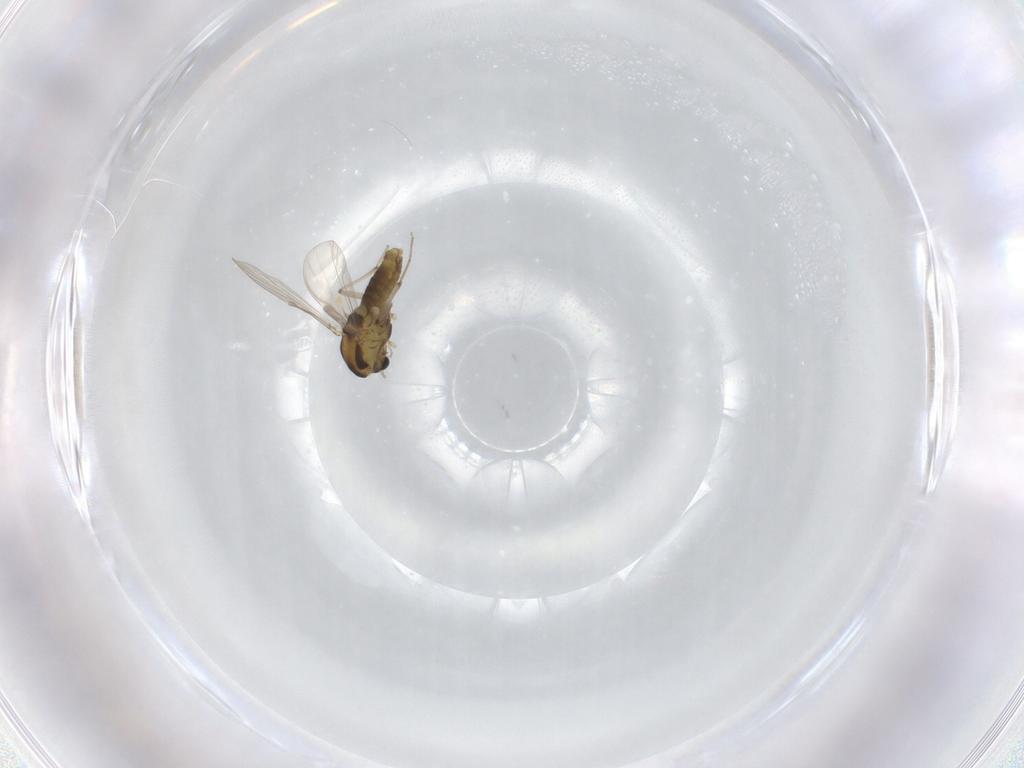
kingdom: Animalia
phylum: Arthropoda
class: Insecta
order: Diptera
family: Chironomidae
